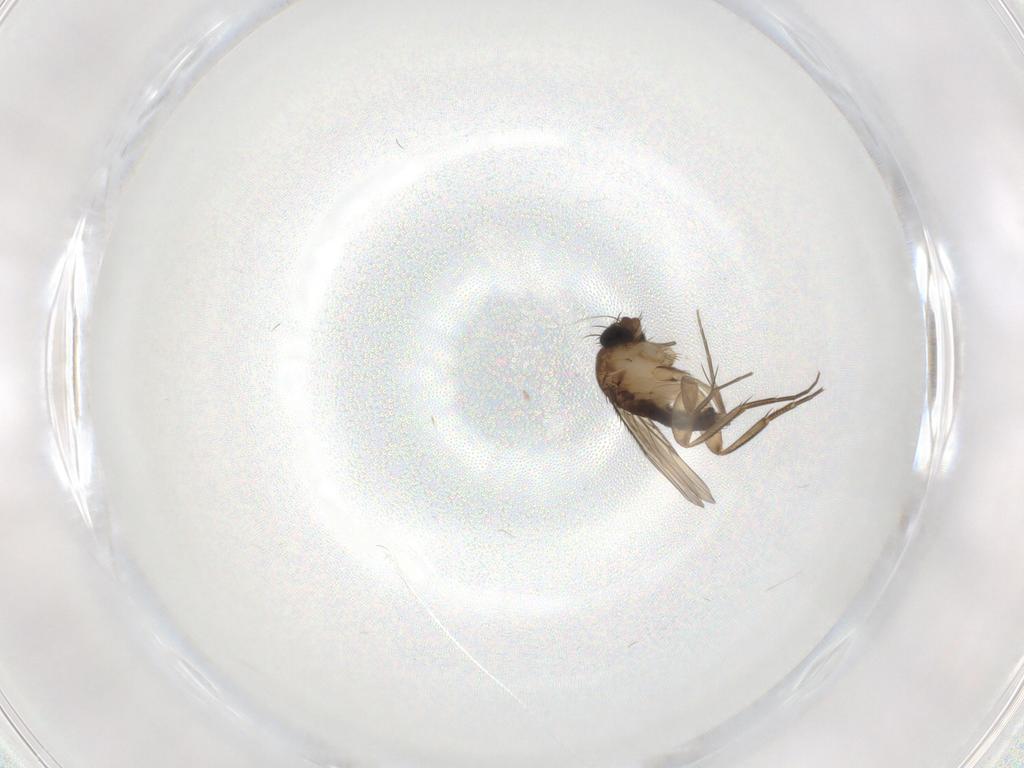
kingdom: Animalia
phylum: Arthropoda
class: Insecta
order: Diptera
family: Phoridae
